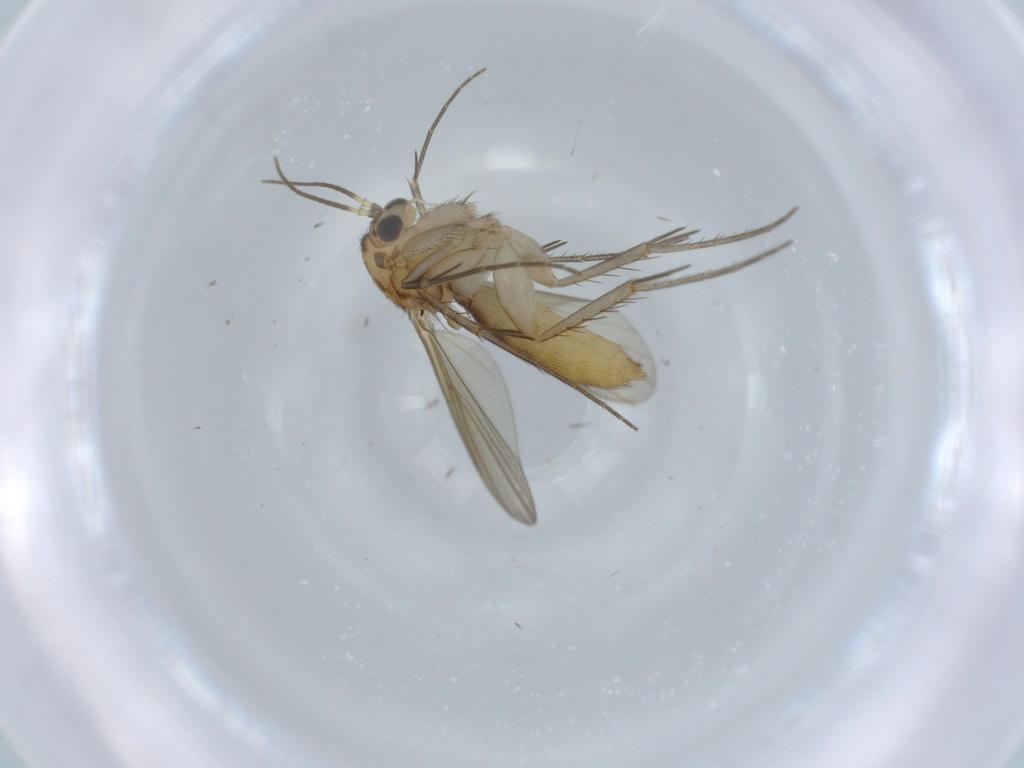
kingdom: Animalia
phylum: Arthropoda
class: Insecta
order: Diptera
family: Mycetophilidae
